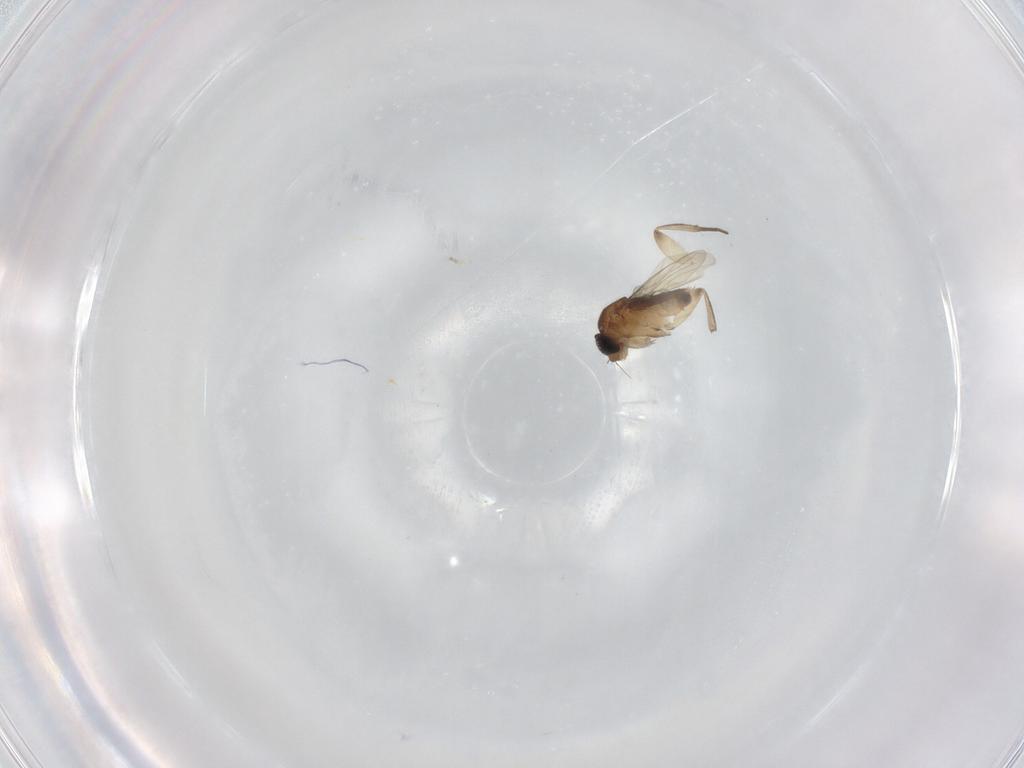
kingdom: Animalia
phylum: Arthropoda
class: Insecta
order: Diptera
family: Phoridae
